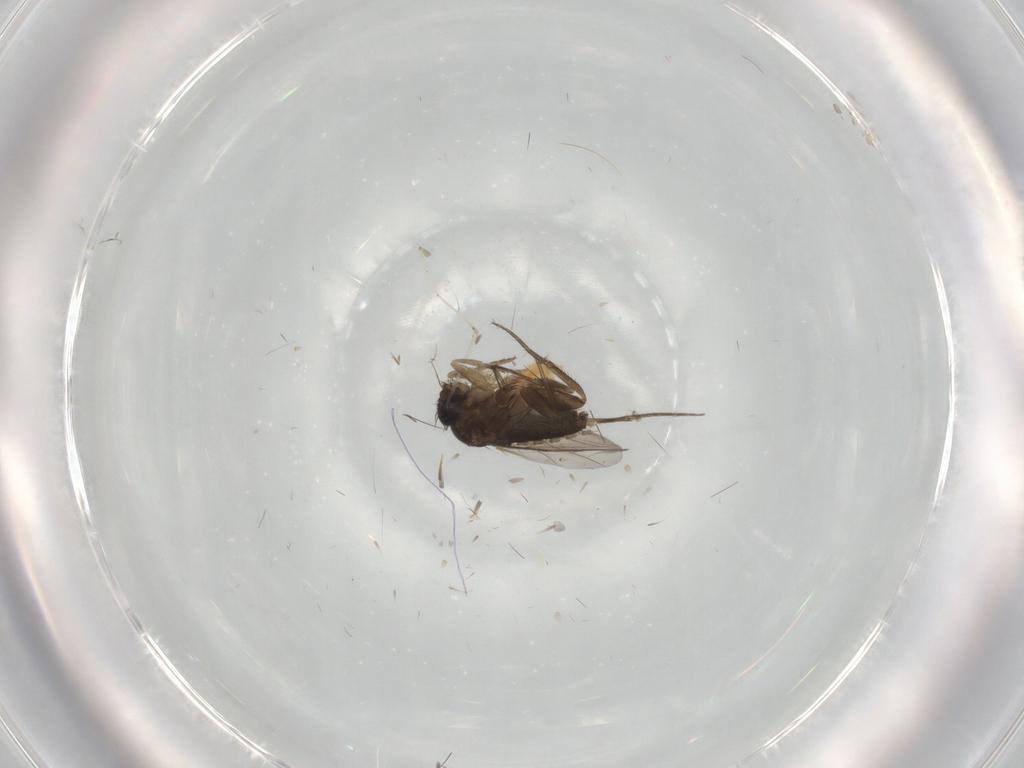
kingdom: Animalia
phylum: Arthropoda
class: Insecta
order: Diptera
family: Phoridae
